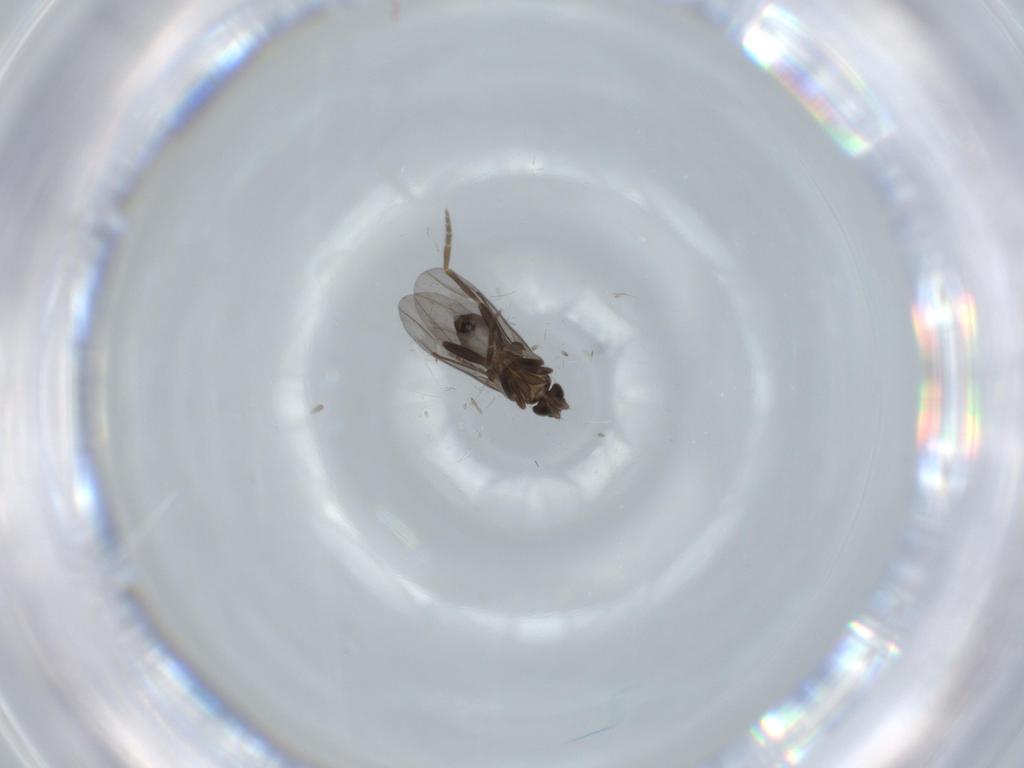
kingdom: Animalia
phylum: Arthropoda
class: Insecta
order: Diptera
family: Phoridae
